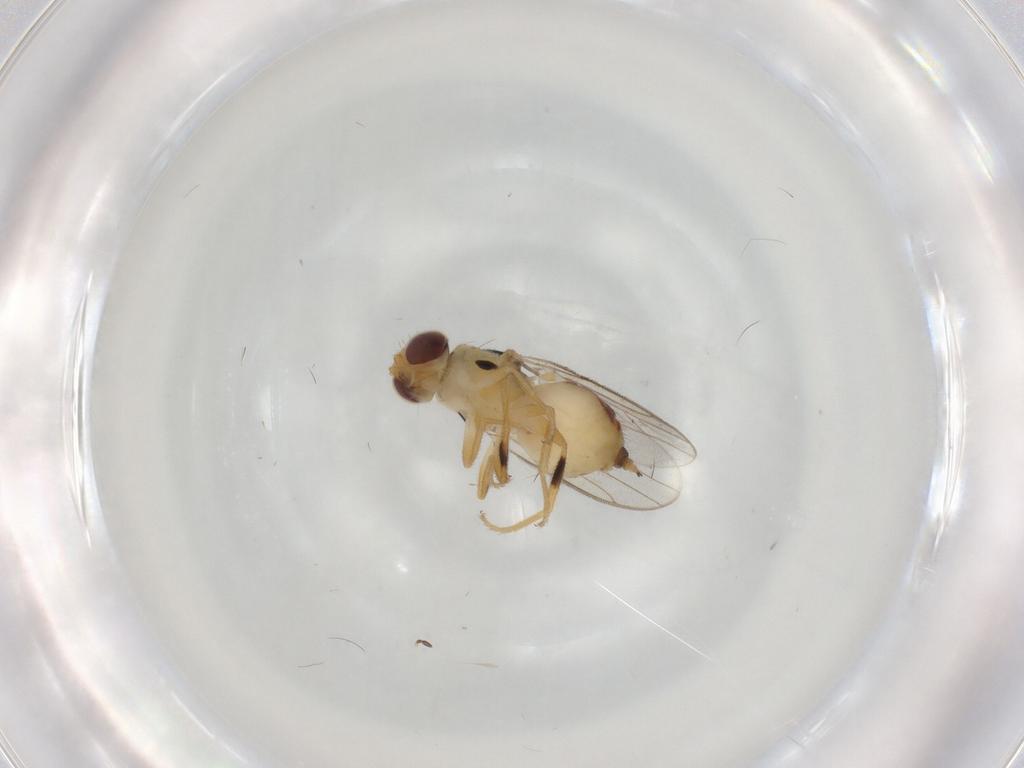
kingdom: Animalia
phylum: Arthropoda
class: Insecta
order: Diptera
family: Chloropidae
